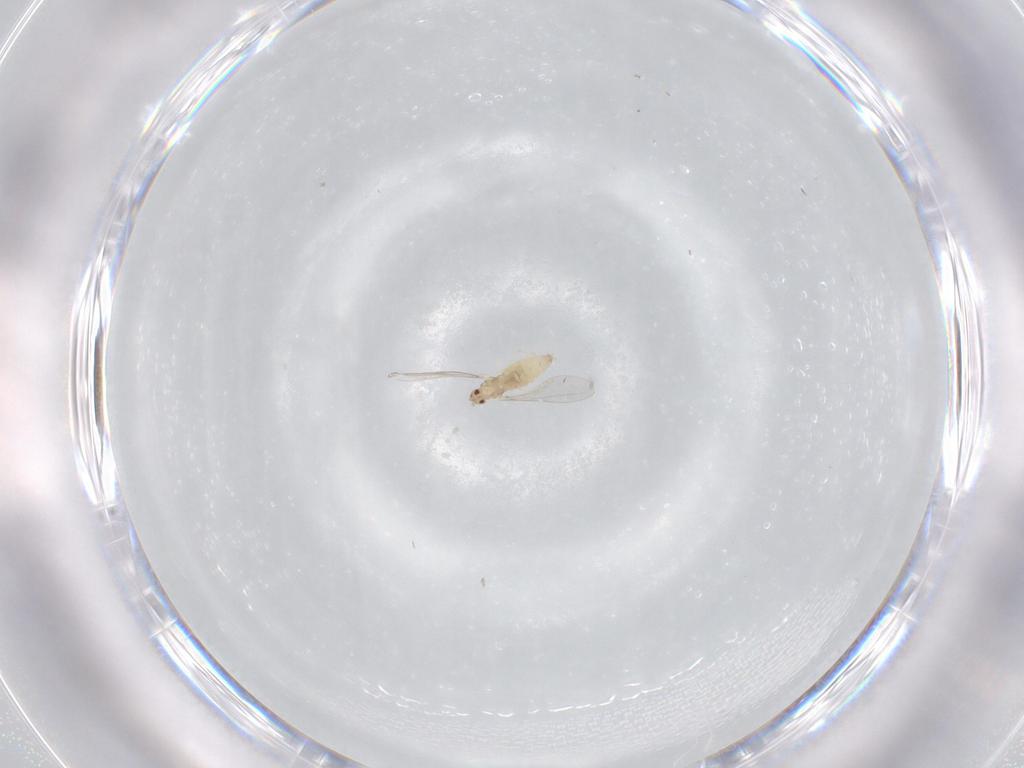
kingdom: Animalia
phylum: Arthropoda
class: Insecta
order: Diptera
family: Cecidomyiidae
